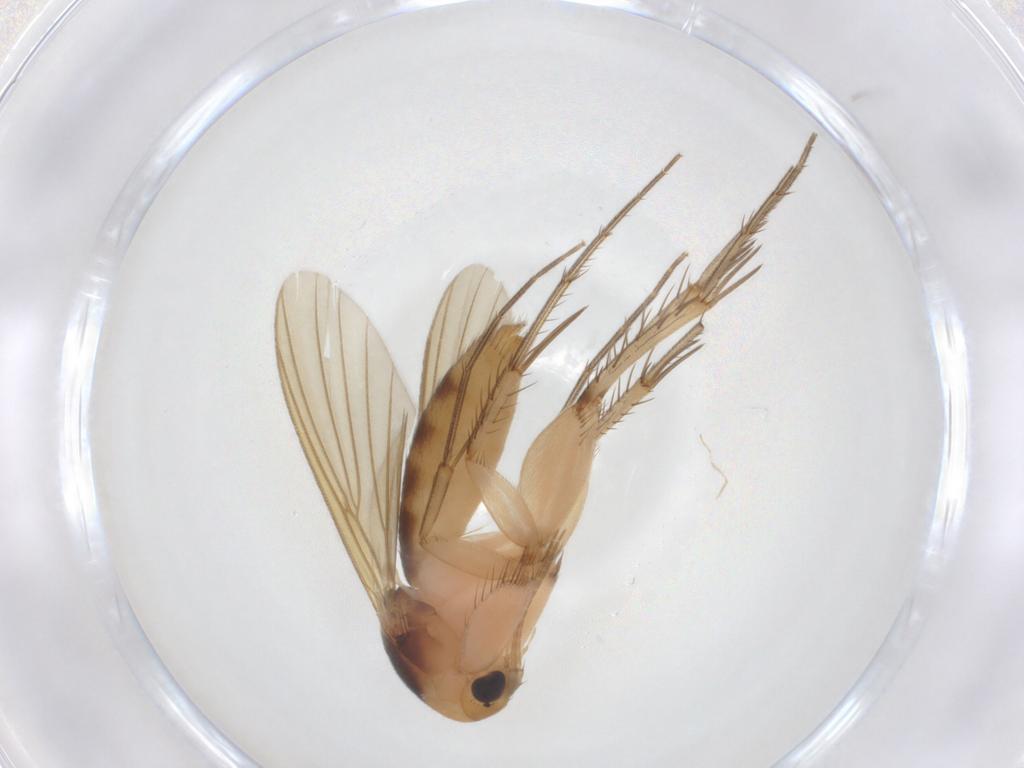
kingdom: Animalia
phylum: Arthropoda
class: Insecta
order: Diptera
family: Mycetophilidae
